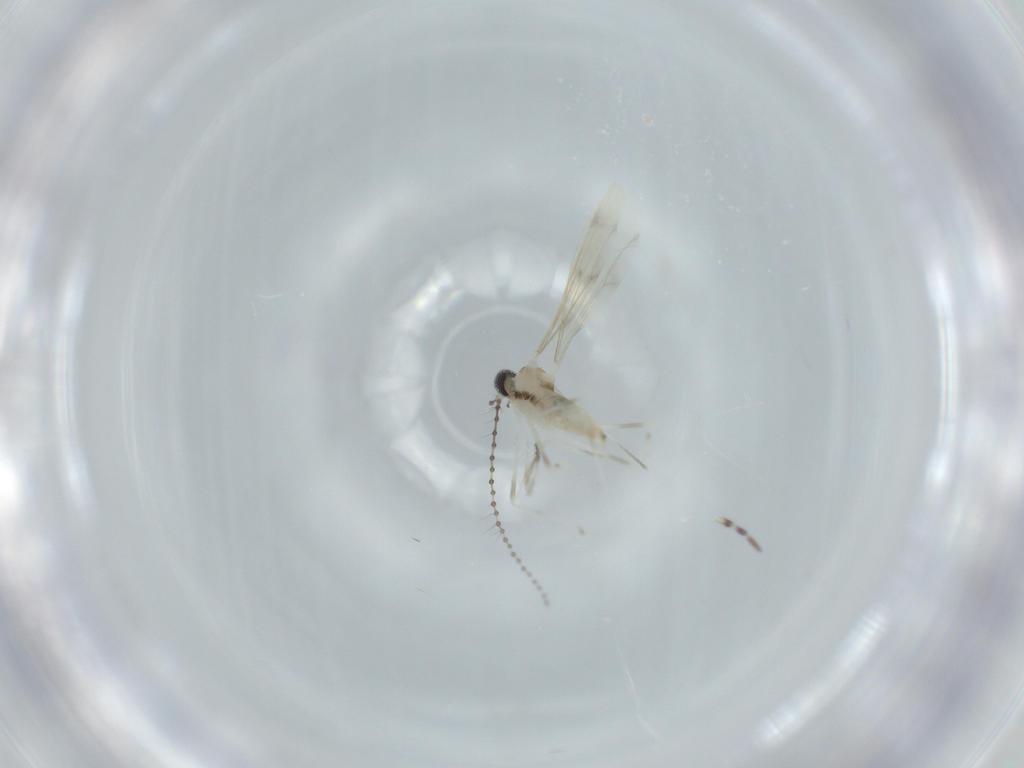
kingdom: Animalia
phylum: Arthropoda
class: Insecta
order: Diptera
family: Cecidomyiidae
